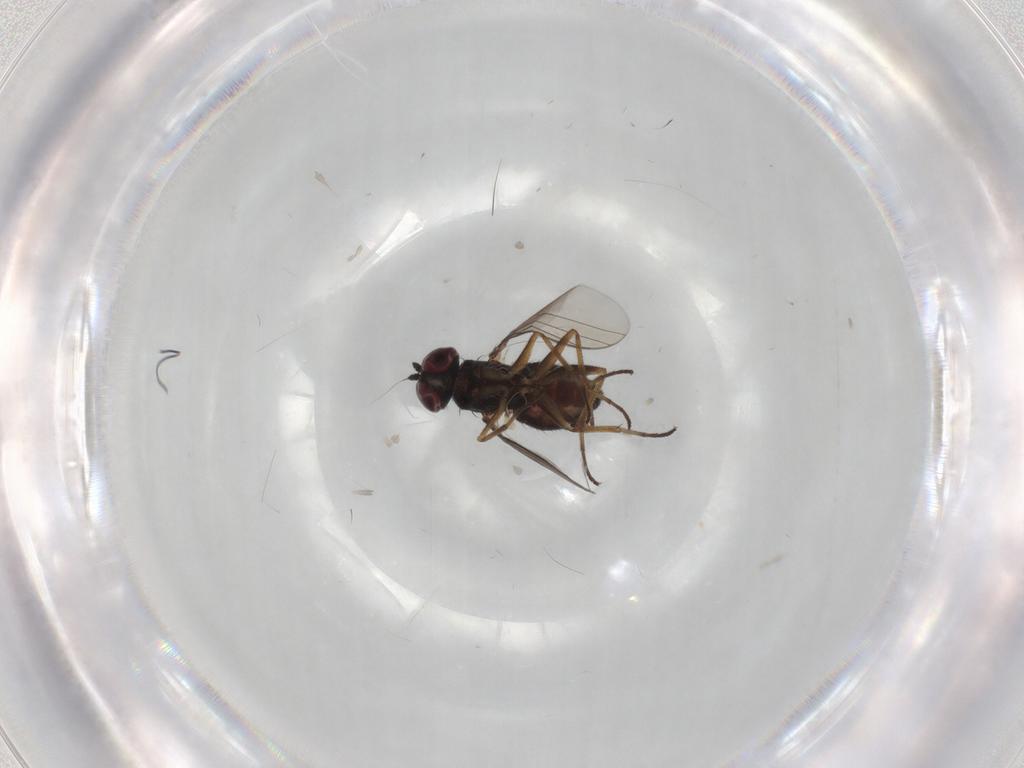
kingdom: Animalia
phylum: Arthropoda
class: Insecta
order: Diptera
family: Dolichopodidae
